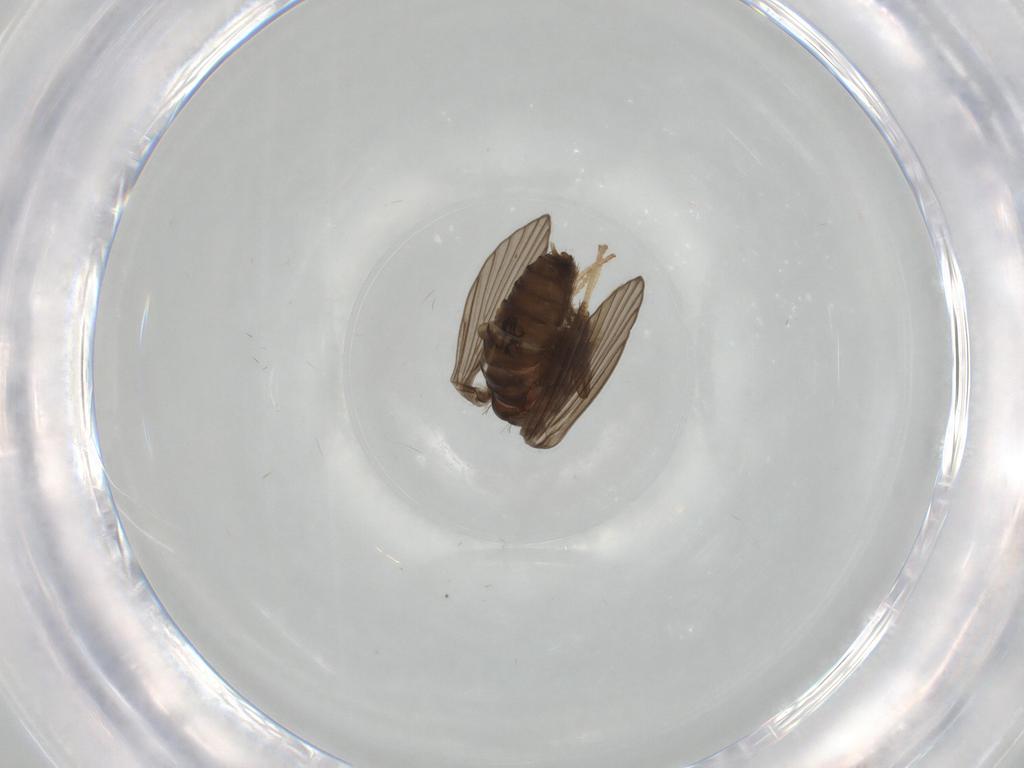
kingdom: Animalia
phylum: Arthropoda
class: Insecta
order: Diptera
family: Psychodidae
